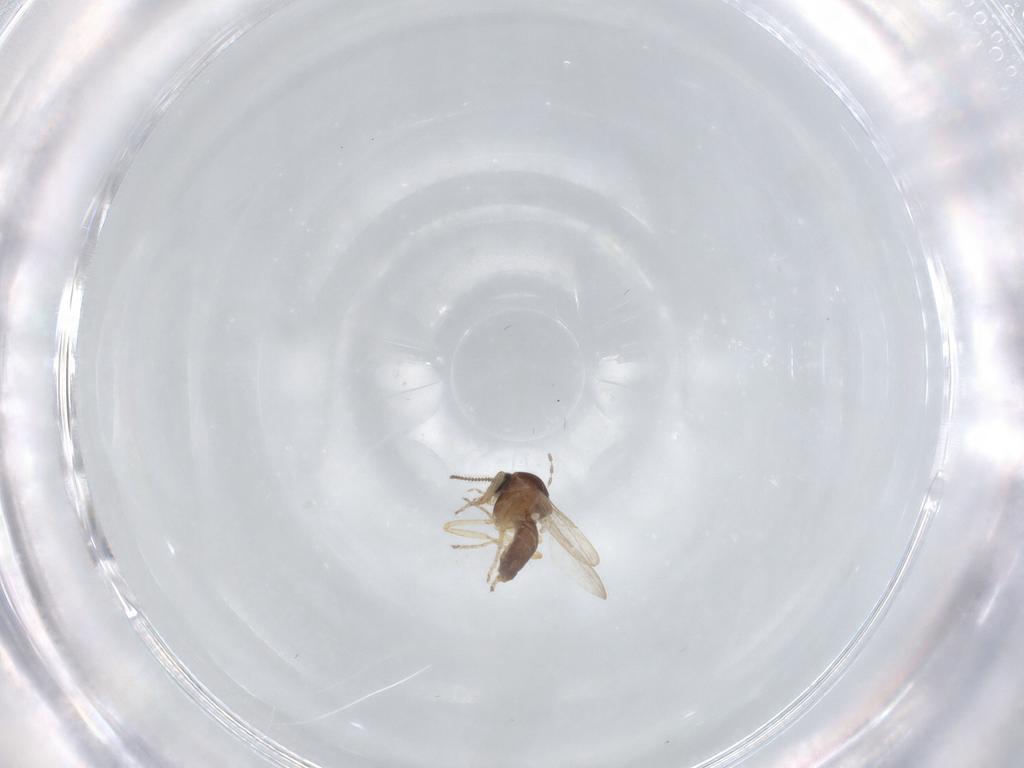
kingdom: Animalia
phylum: Arthropoda
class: Insecta
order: Diptera
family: Ceratopogonidae
